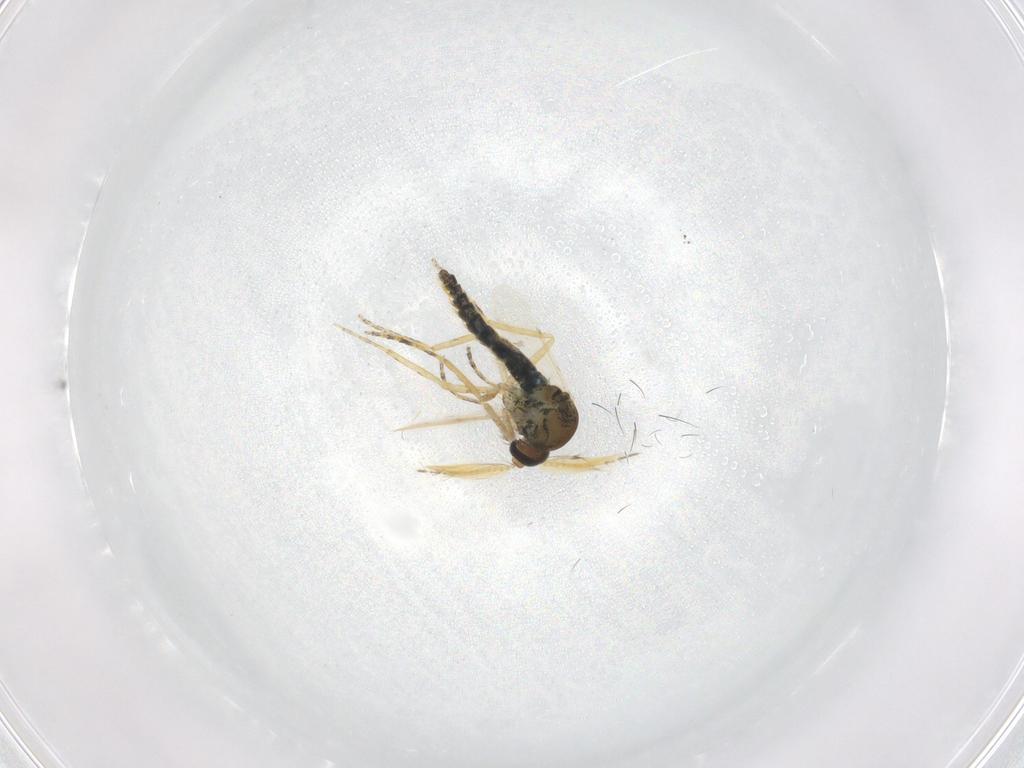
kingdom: Animalia
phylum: Arthropoda
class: Insecta
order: Diptera
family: Ceratopogonidae
